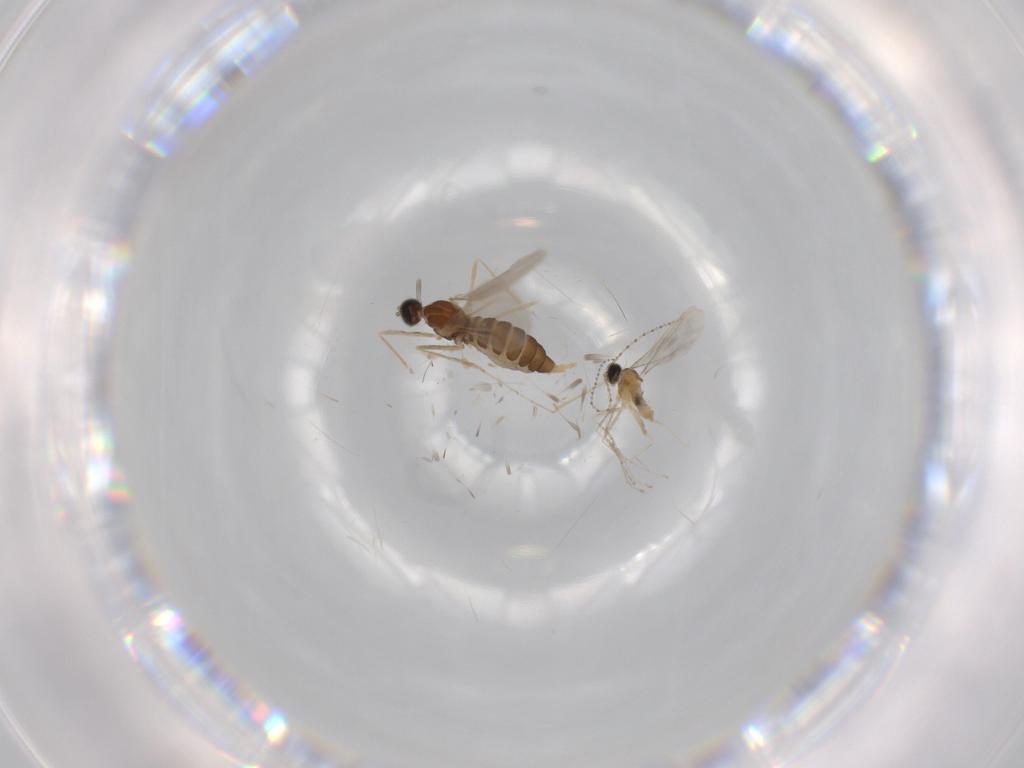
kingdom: Animalia
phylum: Arthropoda
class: Insecta
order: Diptera
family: Cecidomyiidae
